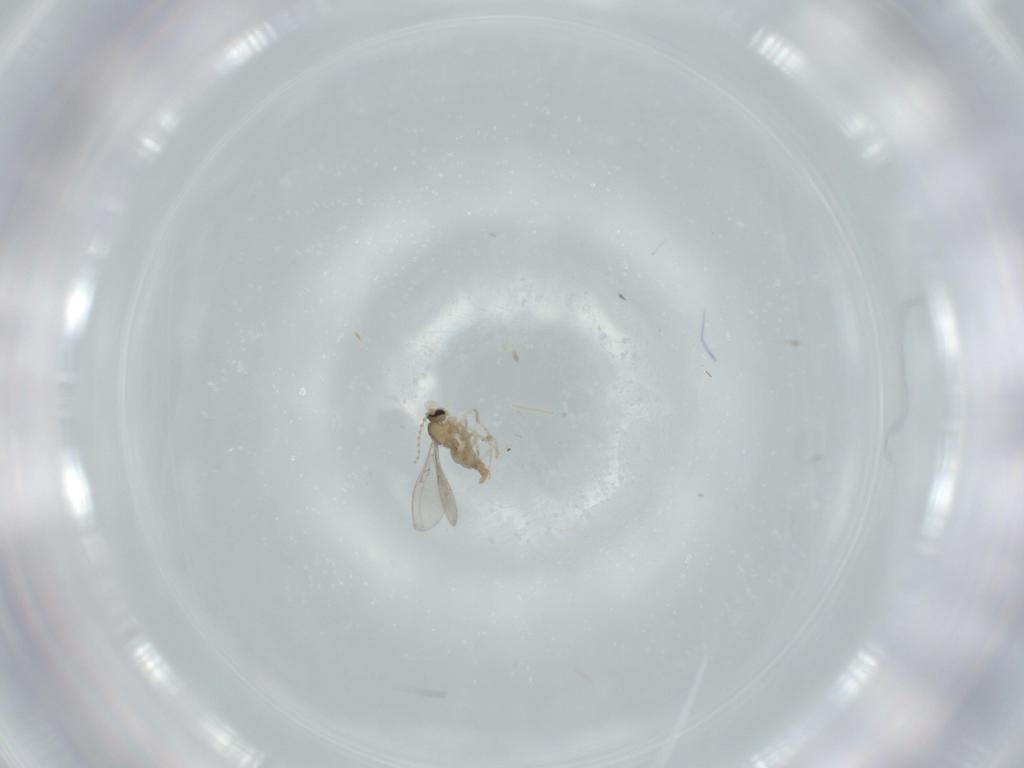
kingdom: Animalia
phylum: Arthropoda
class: Insecta
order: Diptera
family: Cecidomyiidae
